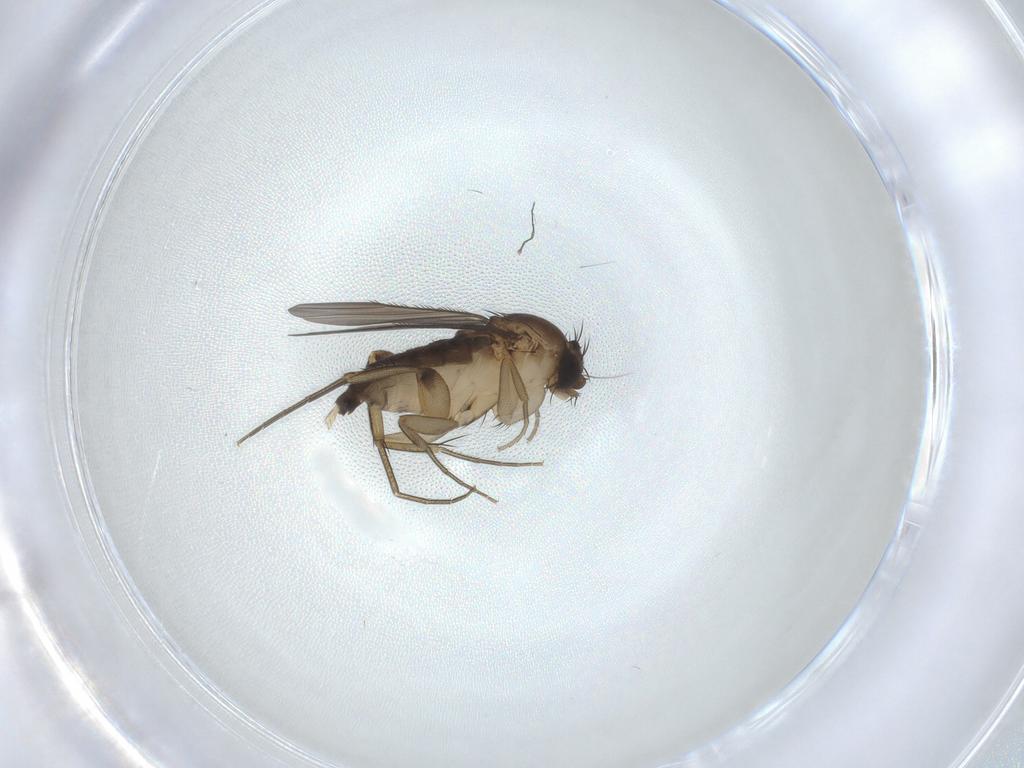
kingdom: Animalia
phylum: Arthropoda
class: Insecta
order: Diptera
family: Phoridae
